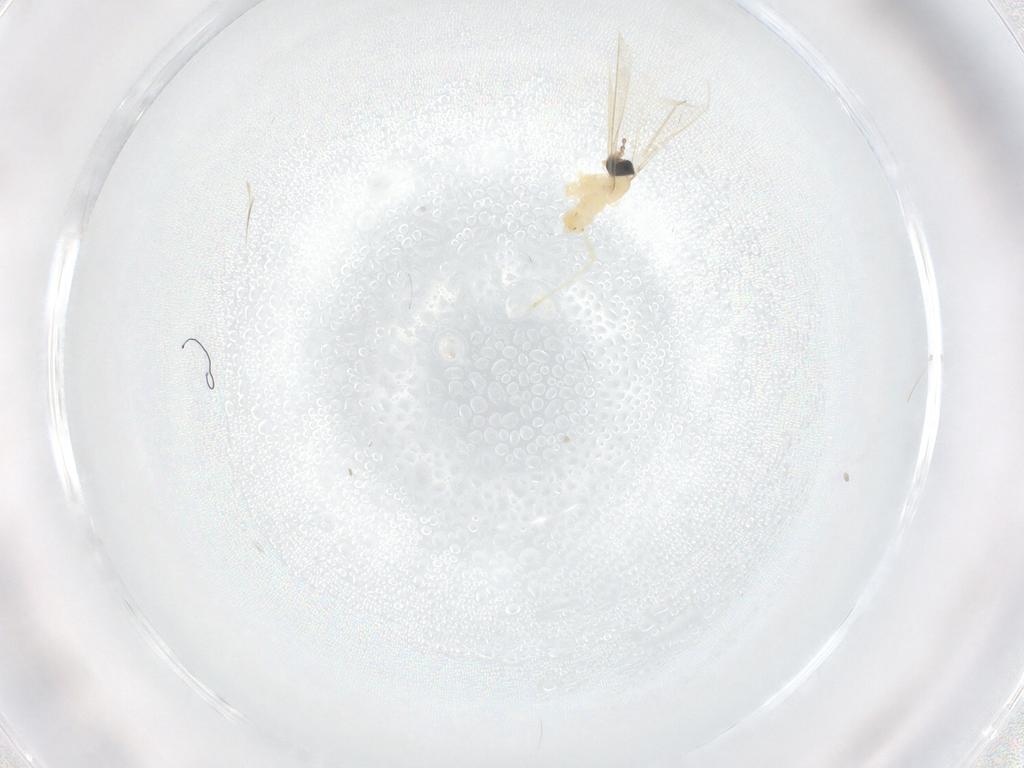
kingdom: Animalia
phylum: Arthropoda
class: Insecta
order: Diptera
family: Cecidomyiidae
